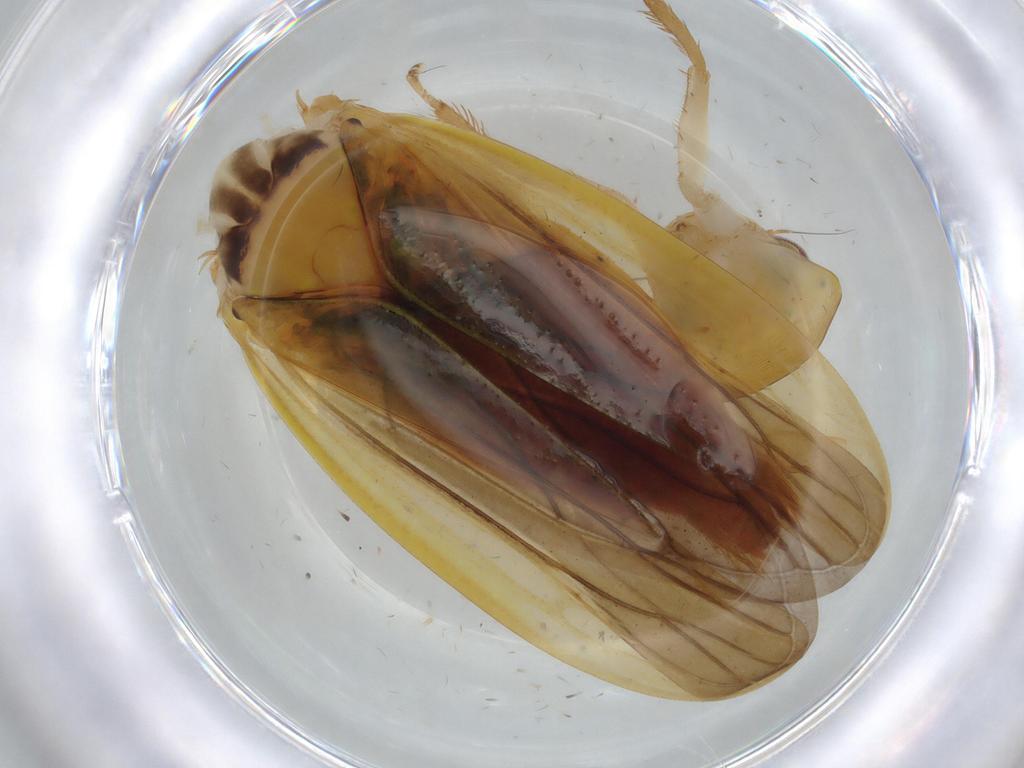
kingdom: Animalia
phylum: Arthropoda
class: Insecta
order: Hemiptera
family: Cicadellidae
